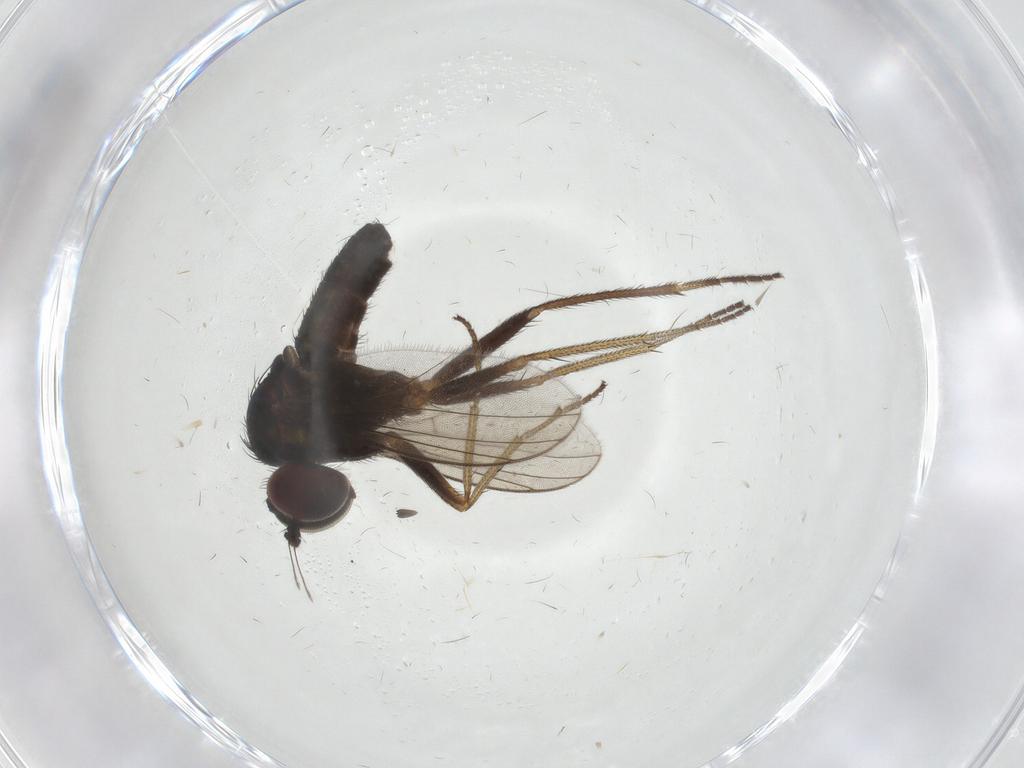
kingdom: Animalia
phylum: Arthropoda
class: Insecta
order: Diptera
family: Dolichopodidae
